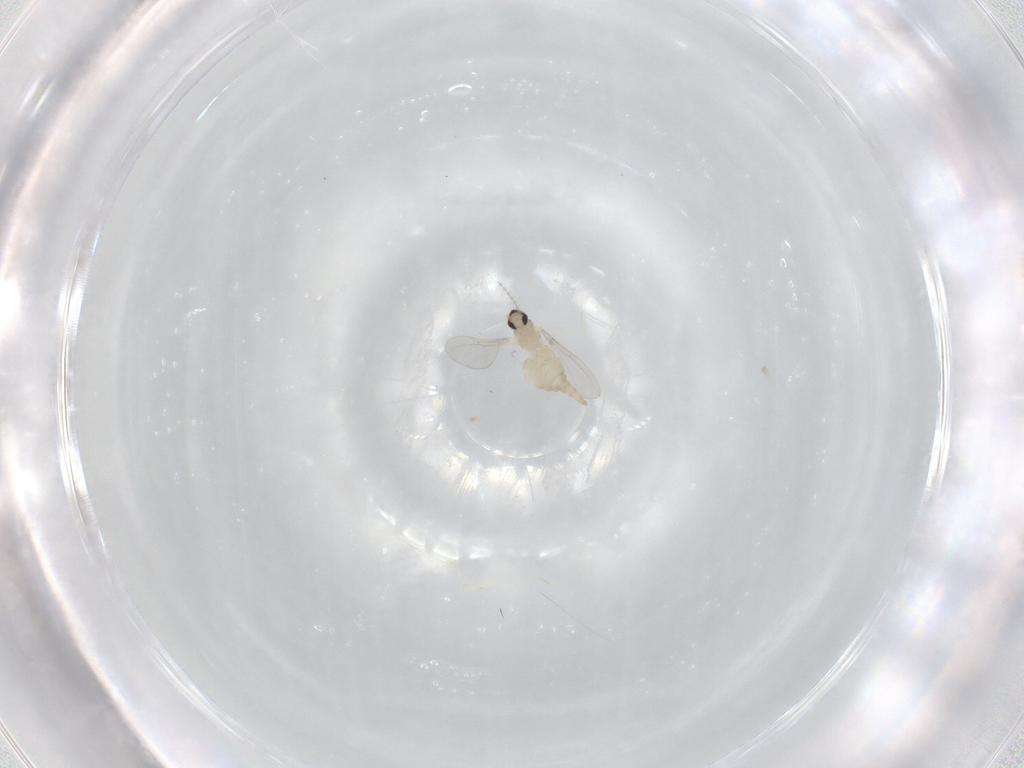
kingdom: Animalia
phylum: Arthropoda
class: Insecta
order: Diptera
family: Cecidomyiidae
